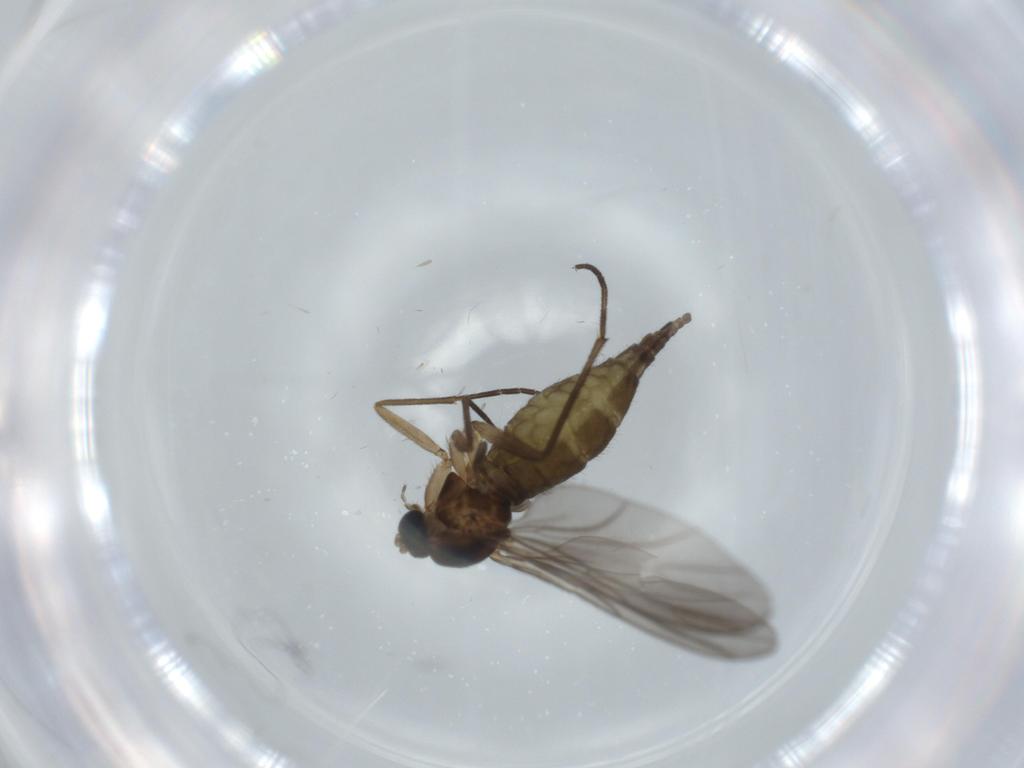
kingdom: Animalia
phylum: Arthropoda
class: Insecta
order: Diptera
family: Sciaridae
